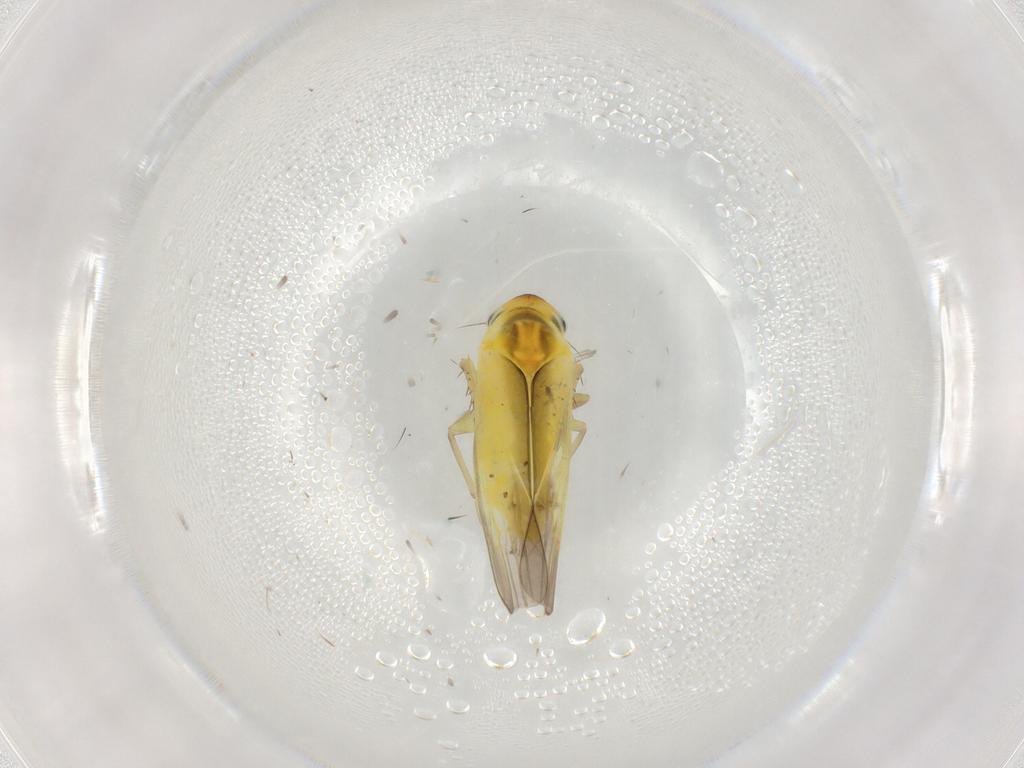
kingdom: Animalia
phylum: Arthropoda
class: Insecta
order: Hemiptera
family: Cicadellidae
